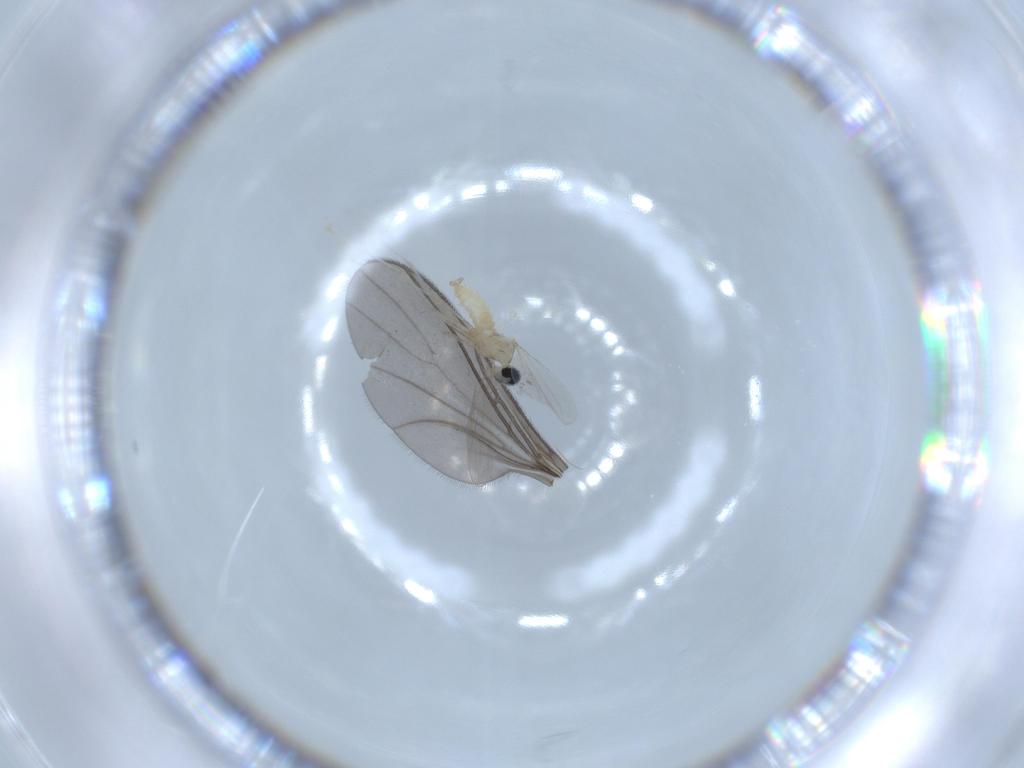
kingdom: Animalia
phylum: Arthropoda
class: Insecta
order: Diptera
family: Cecidomyiidae
